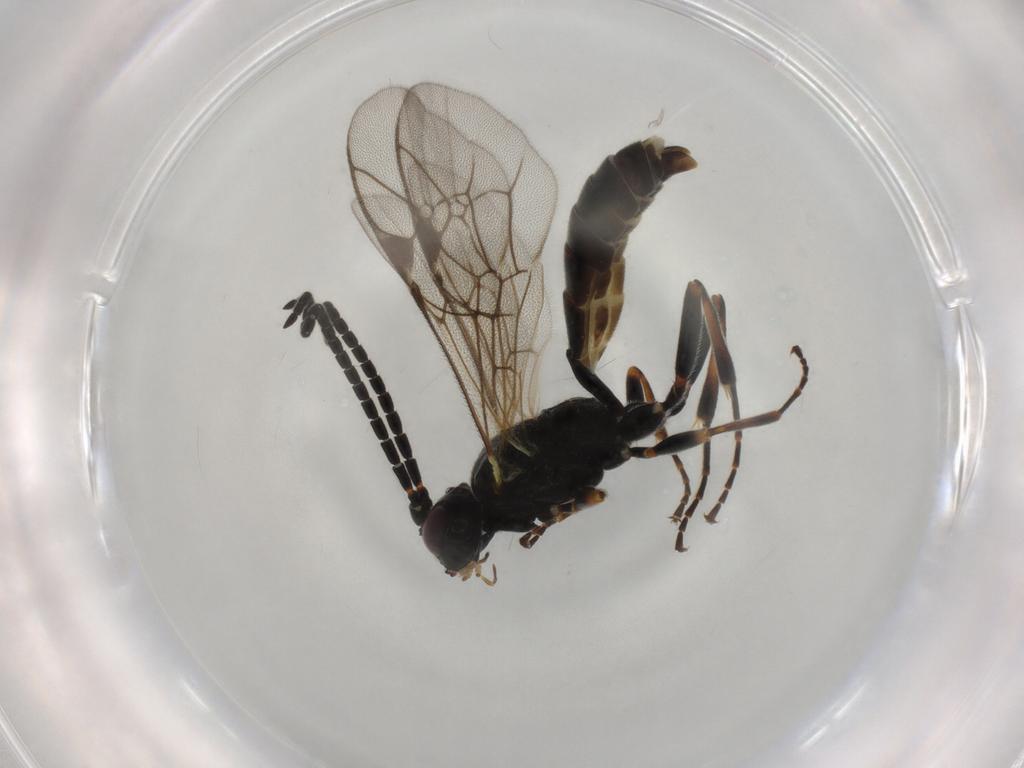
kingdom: Animalia
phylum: Arthropoda
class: Insecta
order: Hymenoptera
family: Ichneumonidae
